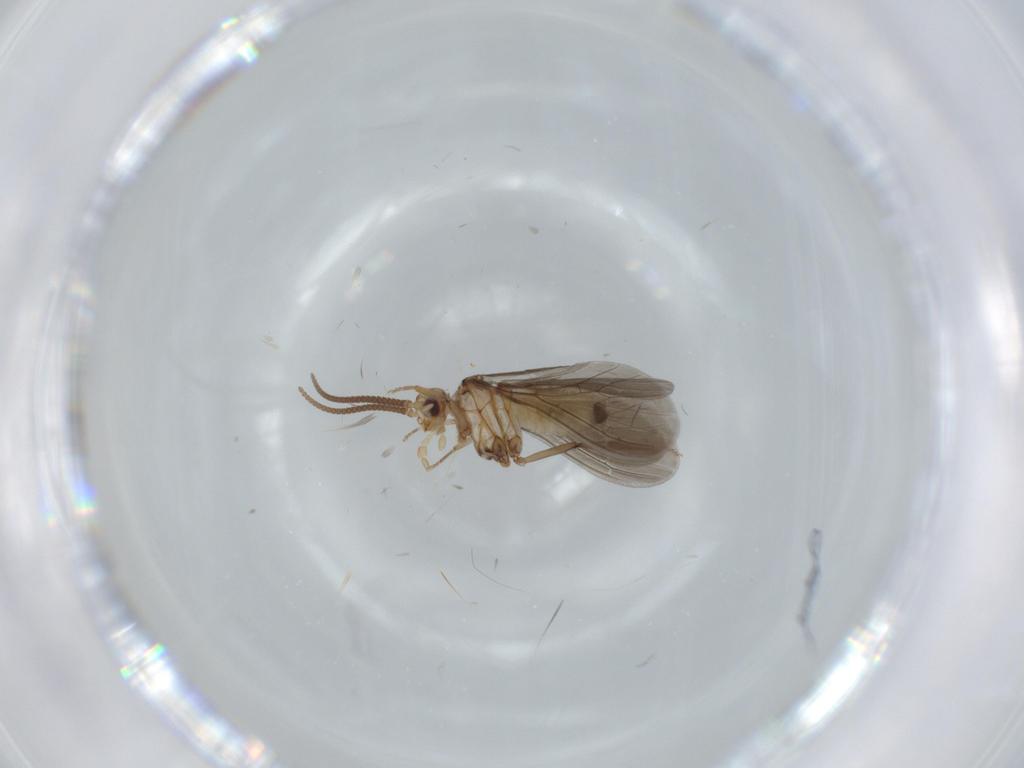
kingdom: Animalia
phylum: Arthropoda
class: Insecta
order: Neuroptera
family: Coniopterygidae
